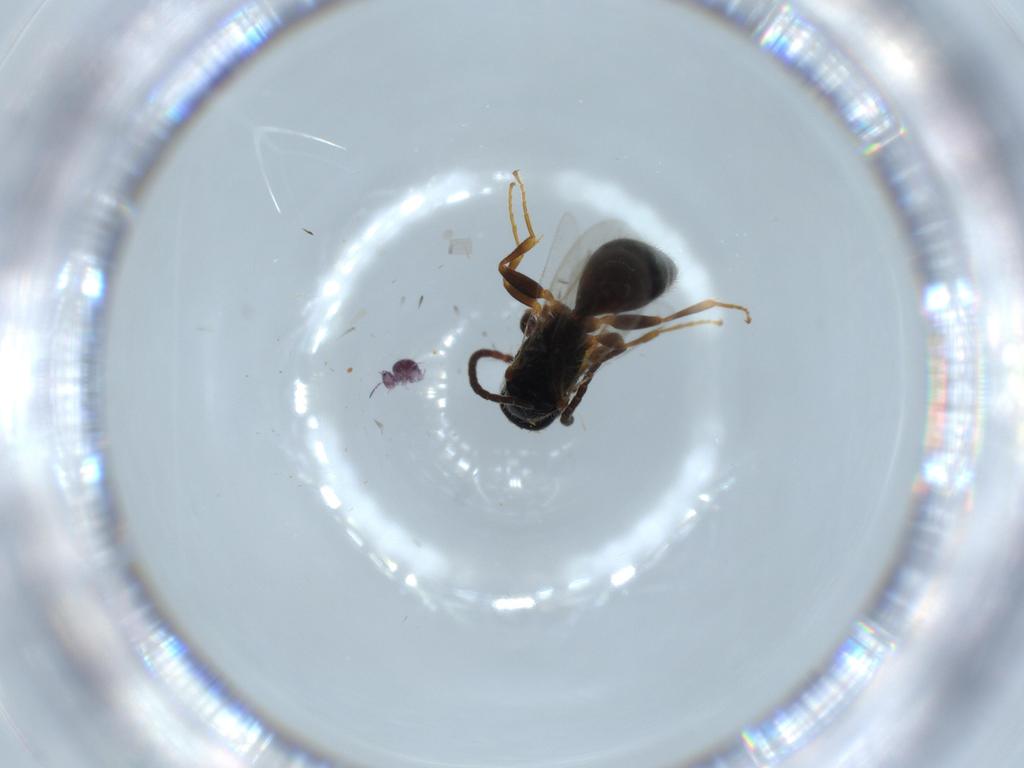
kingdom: Animalia
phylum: Arthropoda
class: Collembola
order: Symphypleona
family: Sminthurididae
